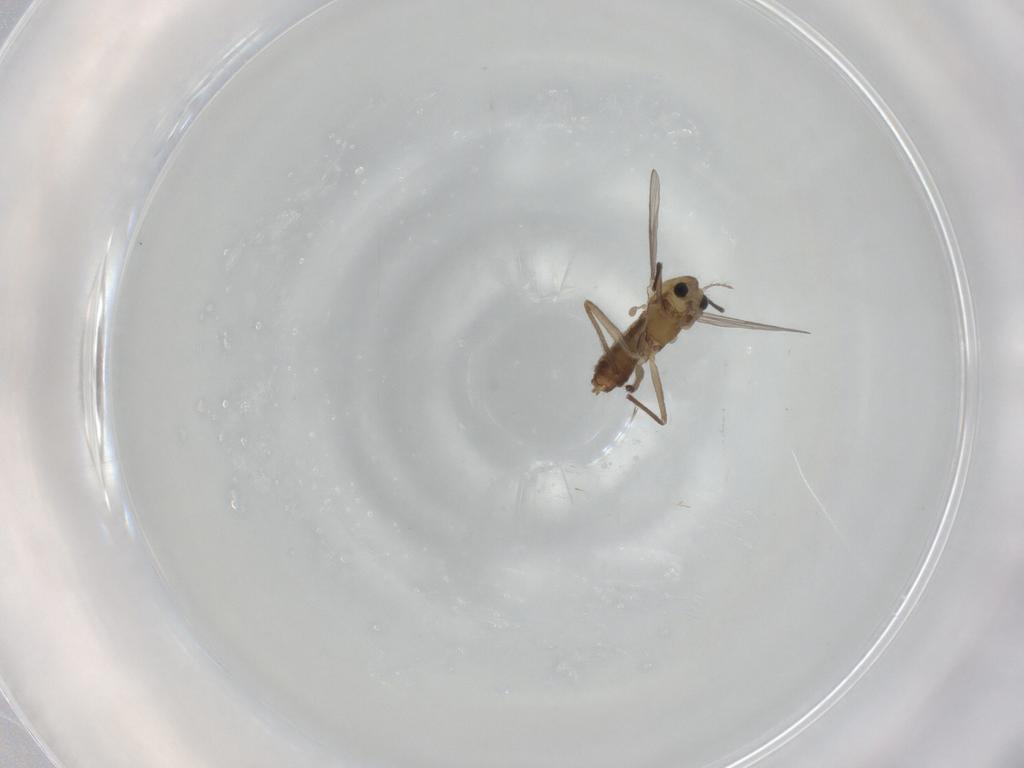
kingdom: Animalia
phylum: Arthropoda
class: Insecta
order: Diptera
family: Chironomidae
